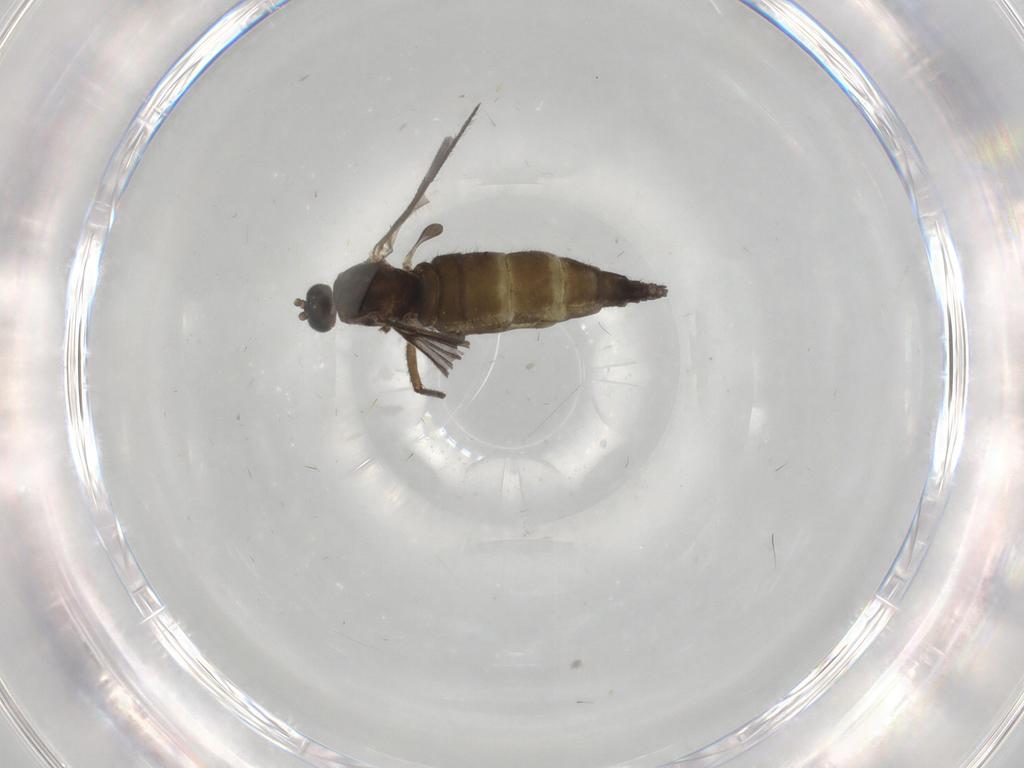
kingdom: Animalia
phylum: Arthropoda
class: Insecta
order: Diptera
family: Sciaridae
